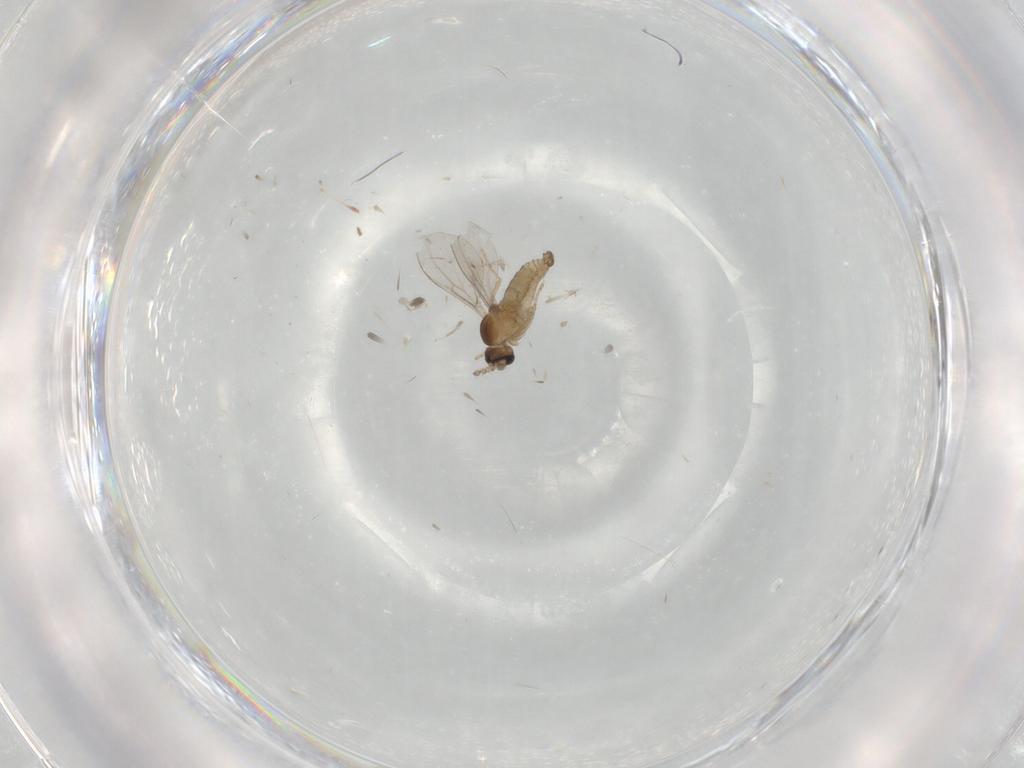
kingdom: Animalia
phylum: Arthropoda
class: Insecta
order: Diptera
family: Cecidomyiidae
